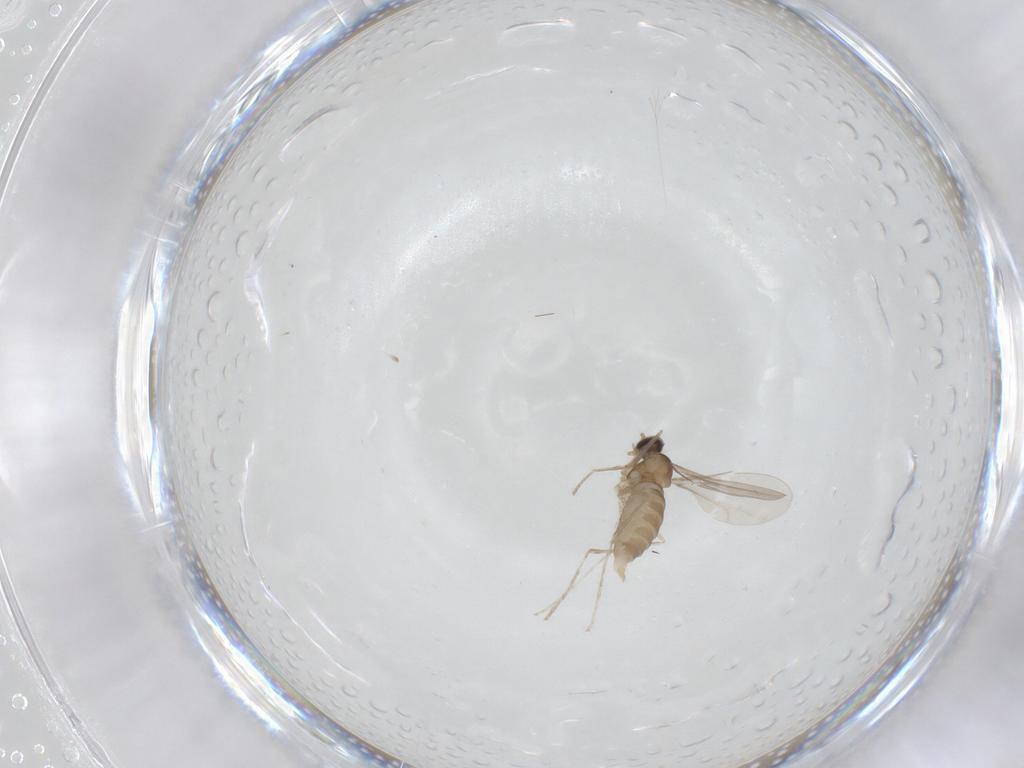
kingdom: Animalia
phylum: Arthropoda
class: Insecta
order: Diptera
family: Cecidomyiidae
